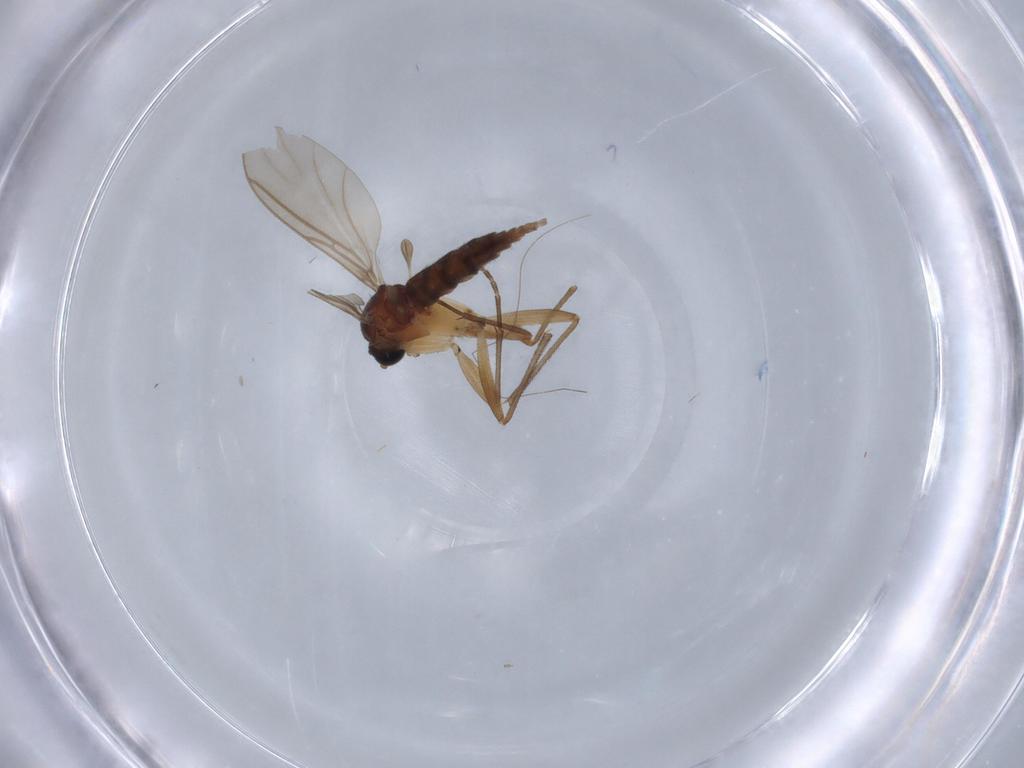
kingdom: Animalia
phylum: Arthropoda
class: Insecta
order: Diptera
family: Sciaridae
